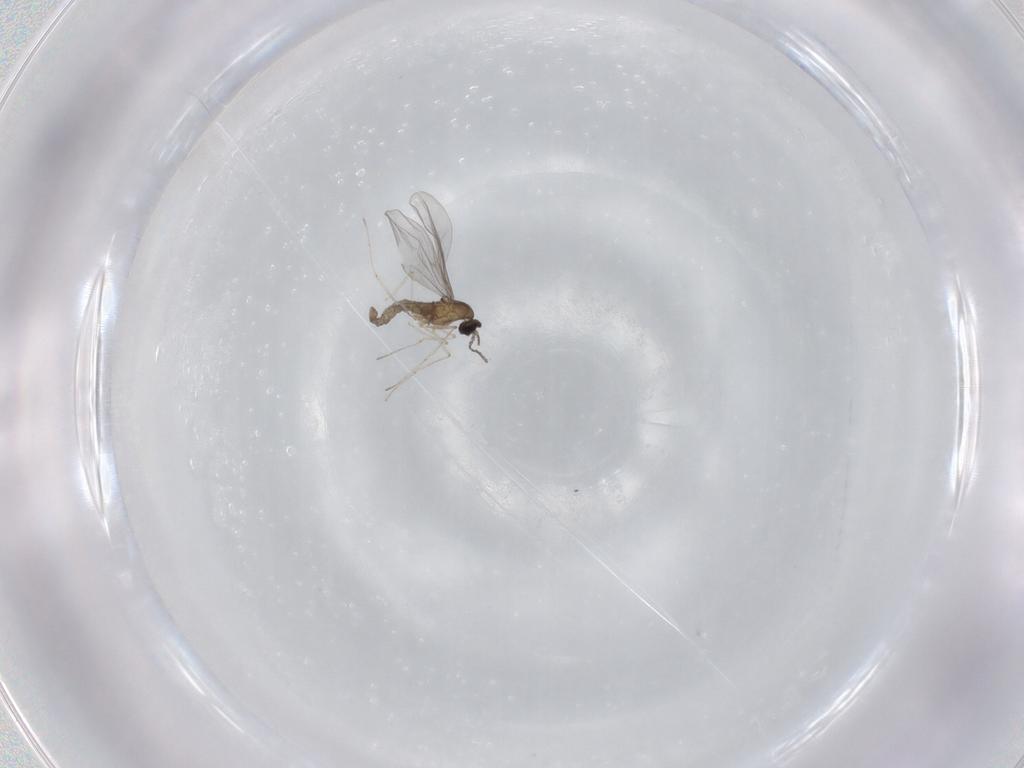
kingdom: Animalia
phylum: Arthropoda
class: Insecta
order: Diptera
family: Cecidomyiidae
